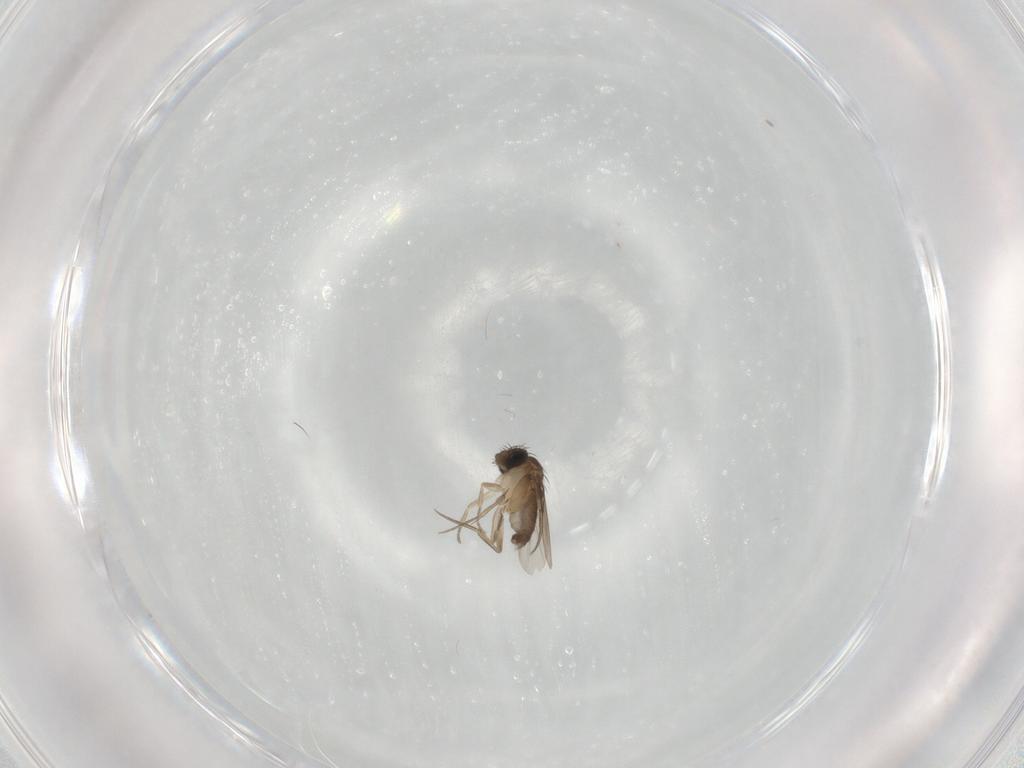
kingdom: Animalia
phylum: Arthropoda
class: Insecta
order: Diptera
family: Phoridae
